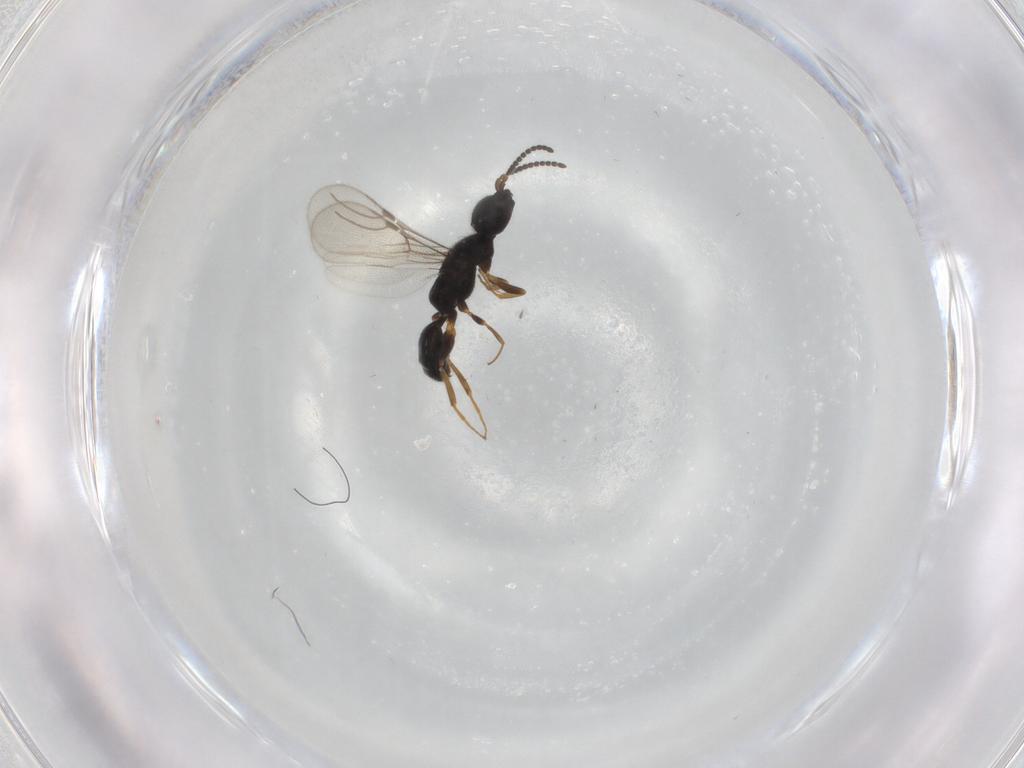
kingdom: Animalia
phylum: Arthropoda
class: Insecta
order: Hymenoptera
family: Bethylidae
